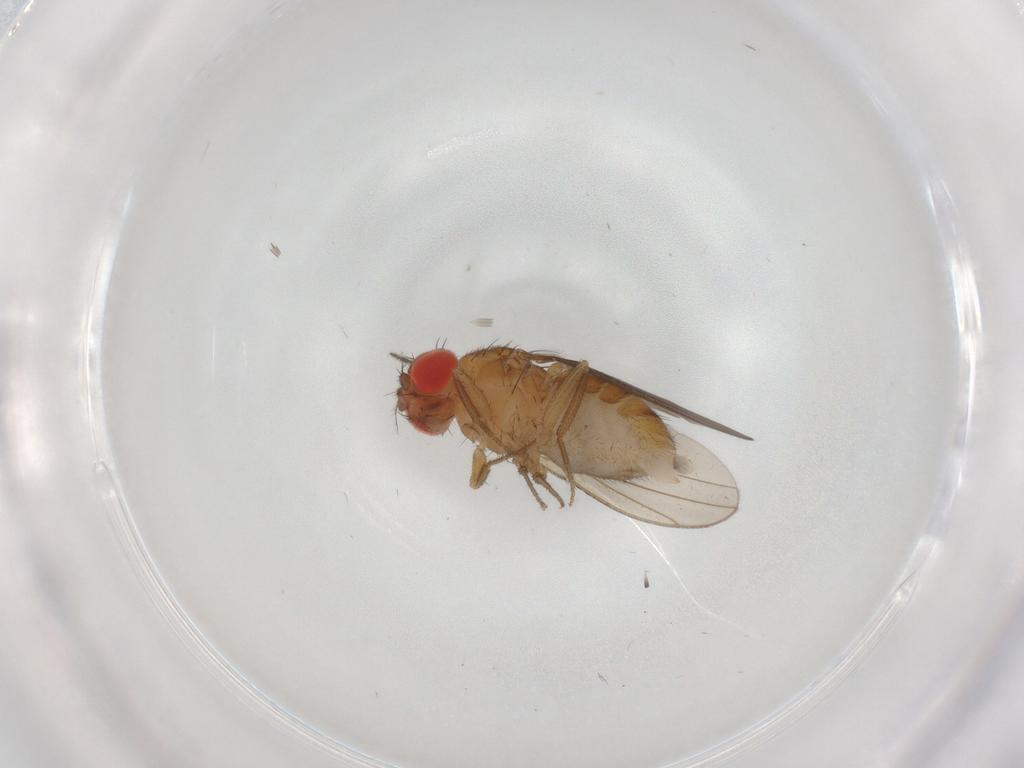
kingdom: Animalia
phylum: Arthropoda
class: Insecta
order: Diptera
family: Drosophilidae
